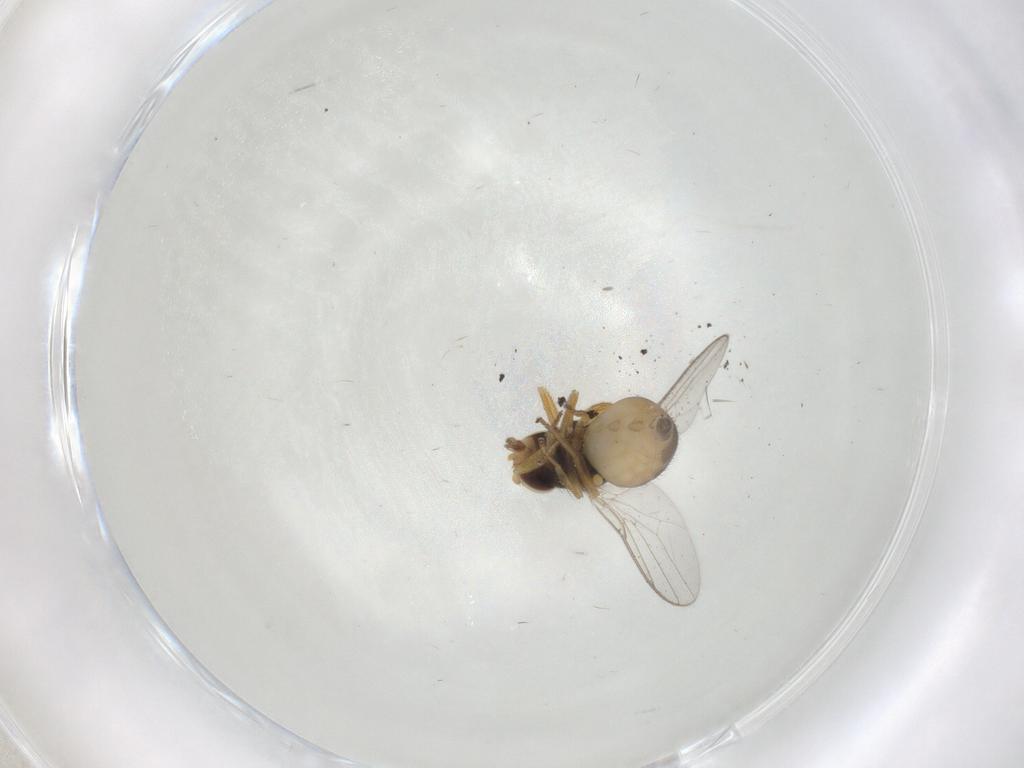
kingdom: Animalia
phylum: Arthropoda
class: Insecta
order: Diptera
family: Chloropidae
